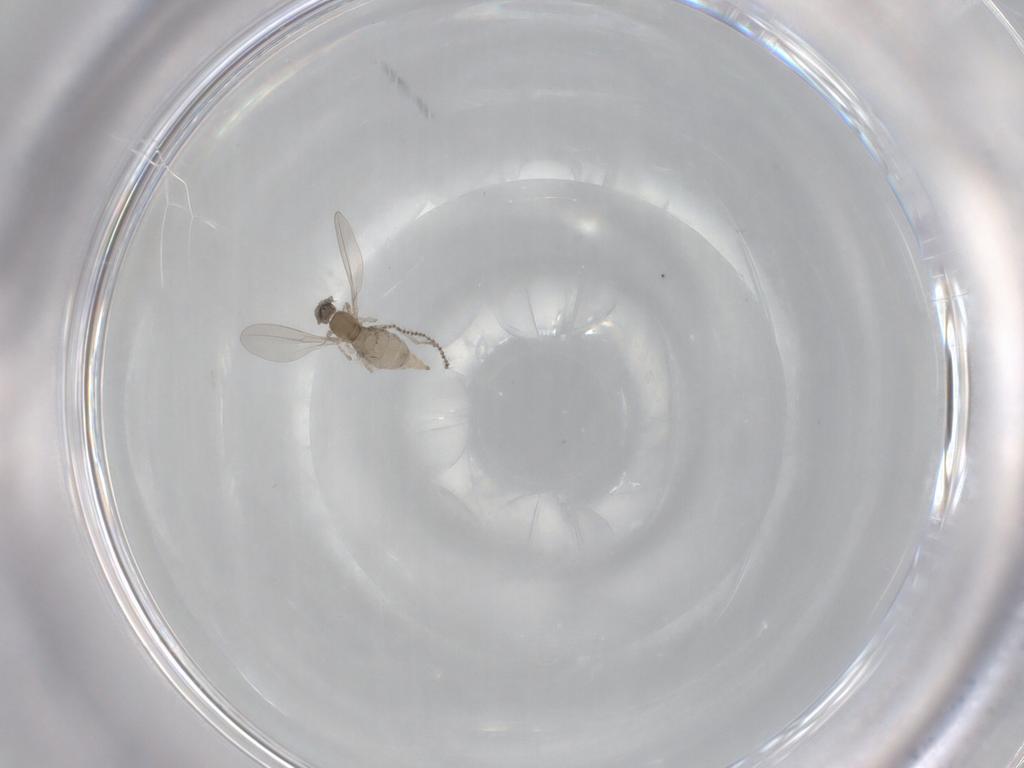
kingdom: Animalia
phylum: Arthropoda
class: Insecta
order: Diptera
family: Cecidomyiidae
